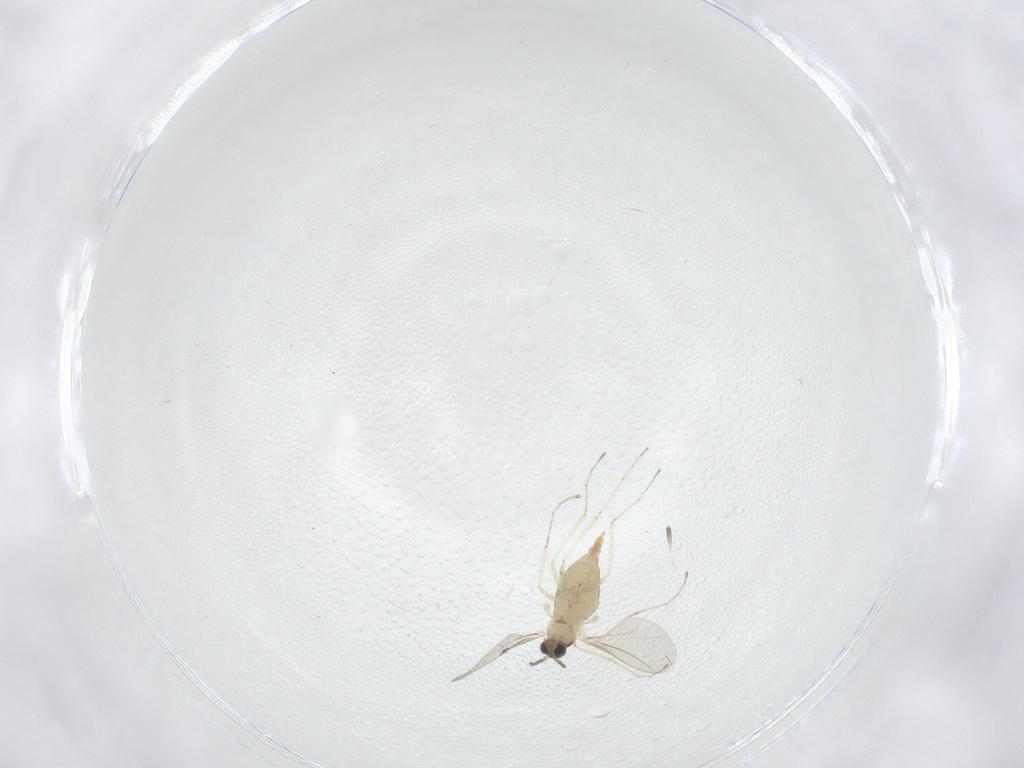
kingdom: Animalia
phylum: Arthropoda
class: Insecta
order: Diptera
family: Cecidomyiidae
